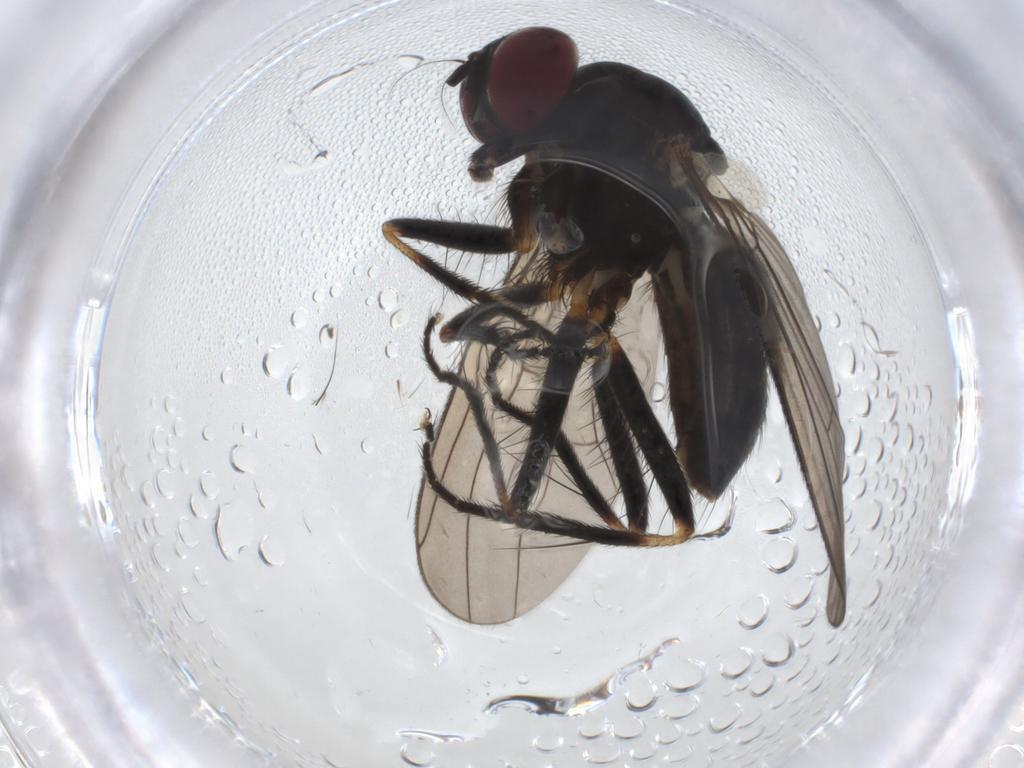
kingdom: Animalia
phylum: Arthropoda
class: Insecta
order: Diptera
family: Anthomyiidae
